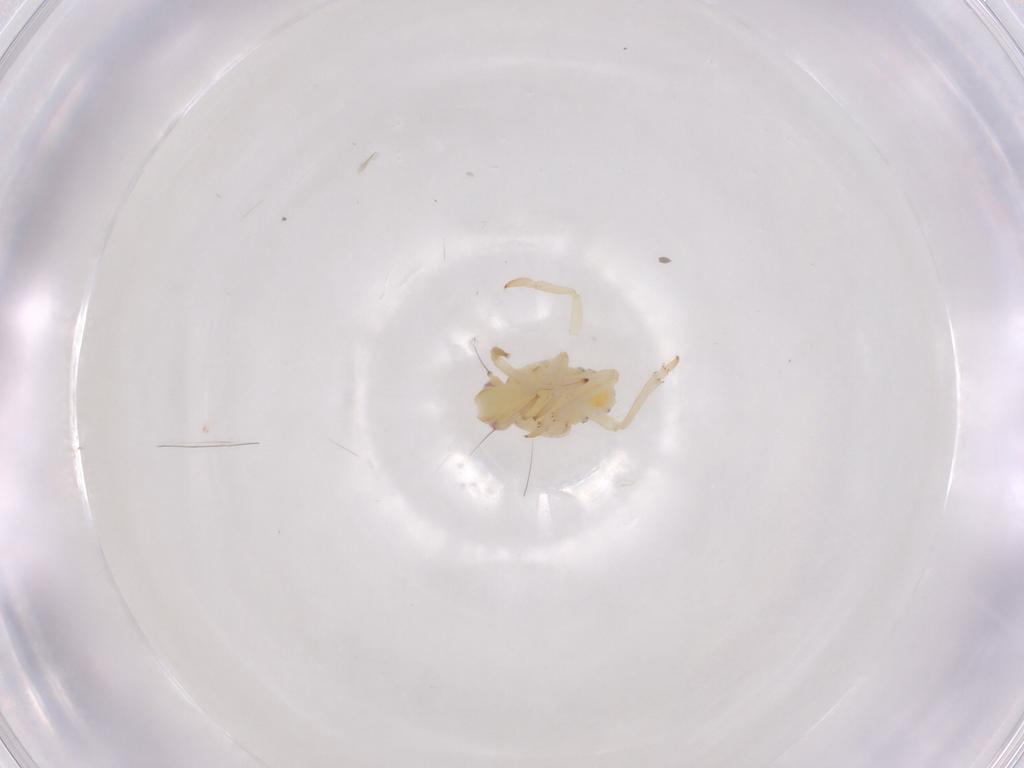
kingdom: Animalia
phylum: Arthropoda
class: Insecta
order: Hemiptera
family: Tropiduchidae
